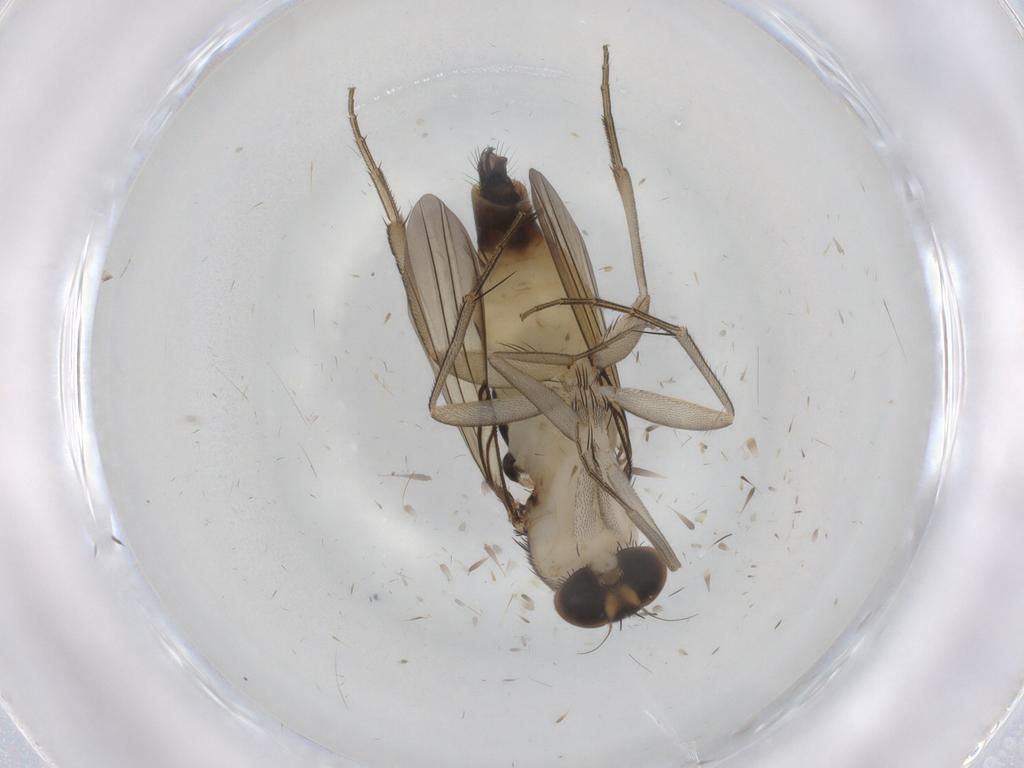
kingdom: Animalia
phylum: Arthropoda
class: Insecta
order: Diptera
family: Phoridae
